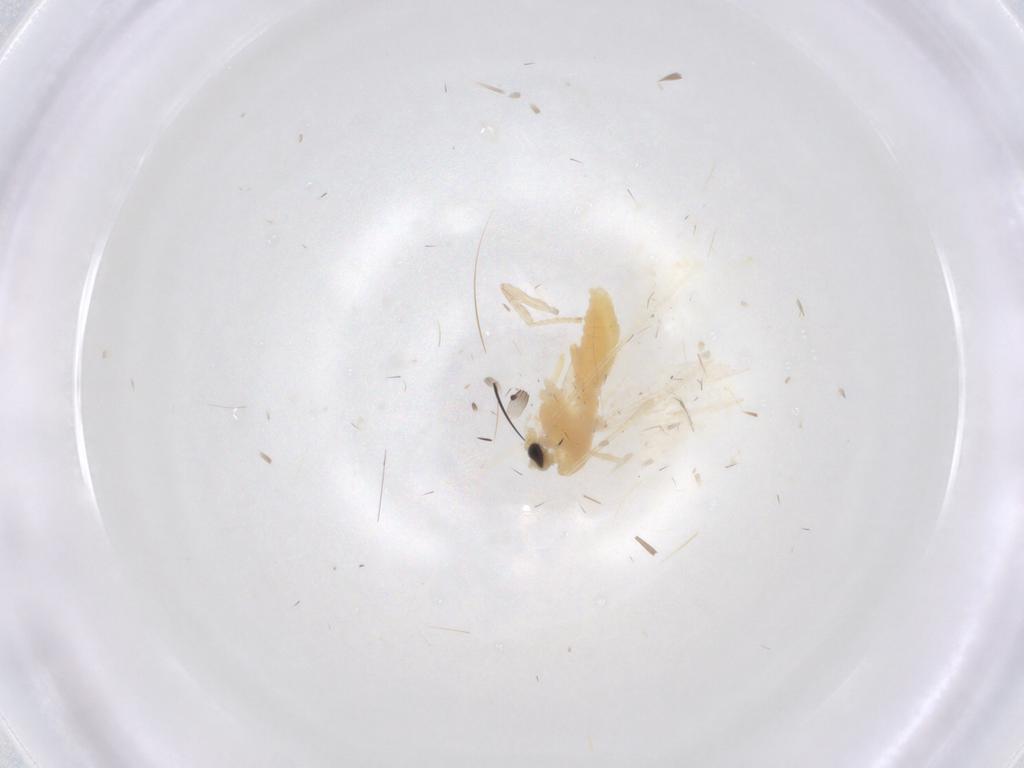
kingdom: Animalia
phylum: Arthropoda
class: Insecta
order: Diptera
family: Chironomidae
